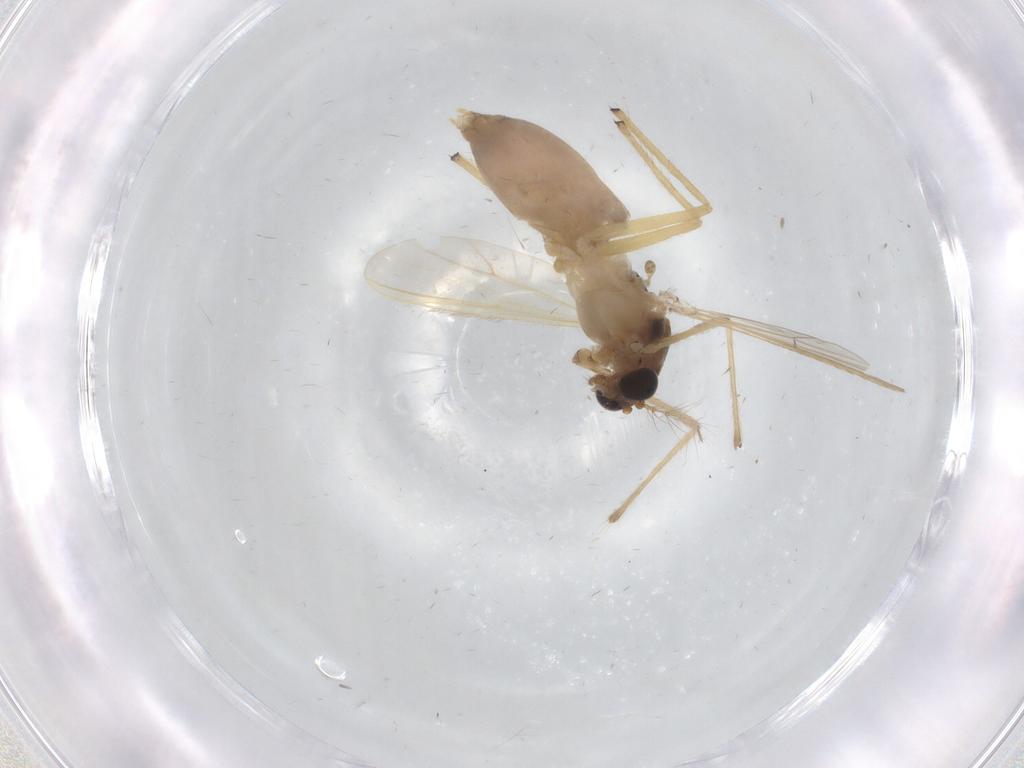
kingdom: Animalia
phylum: Arthropoda
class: Insecta
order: Diptera
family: Chironomidae
